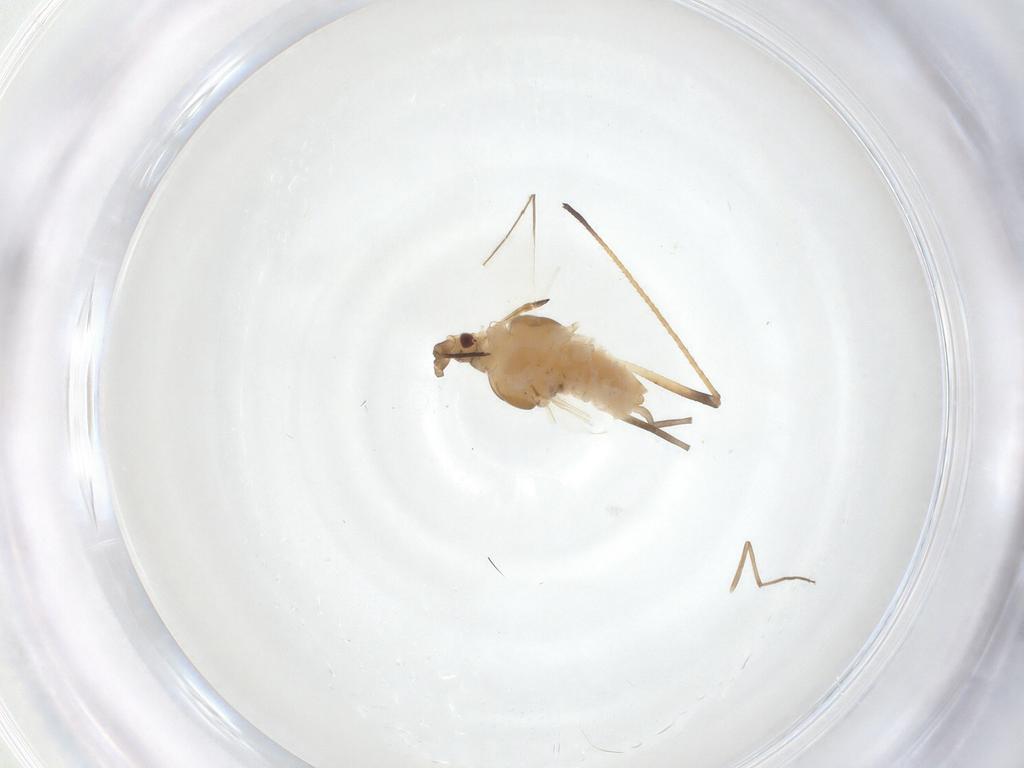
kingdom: Animalia
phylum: Arthropoda
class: Insecta
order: Hemiptera
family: Aphididae
